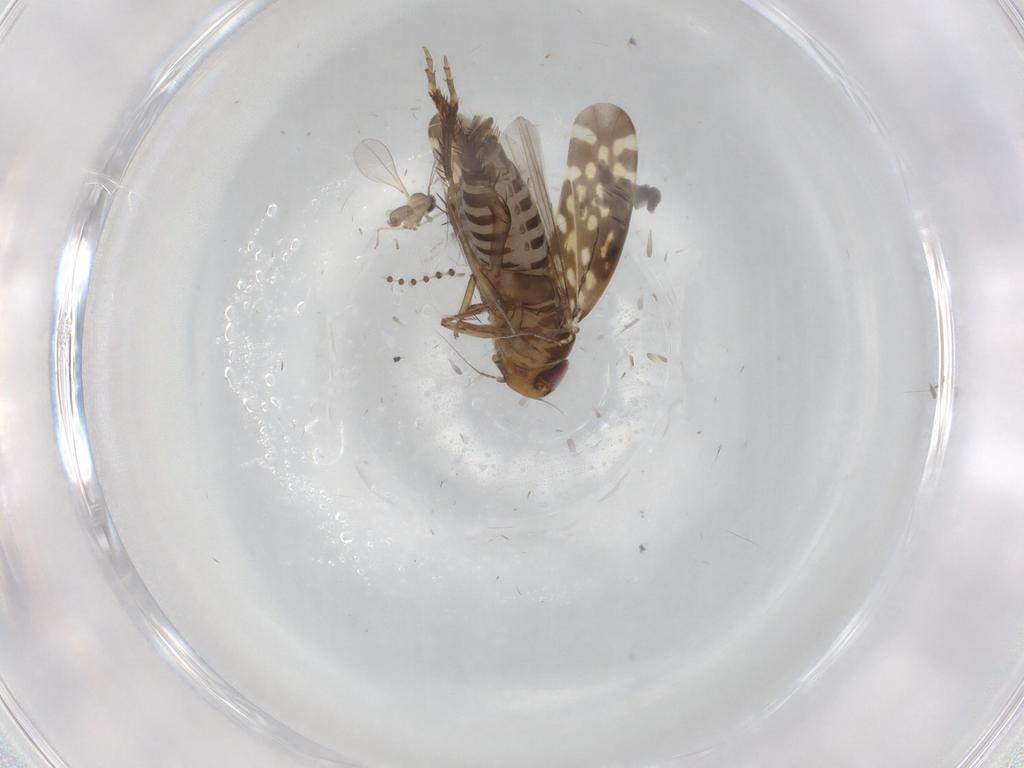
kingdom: Animalia
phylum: Arthropoda
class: Insecta
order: Hemiptera
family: Cicadellidae
